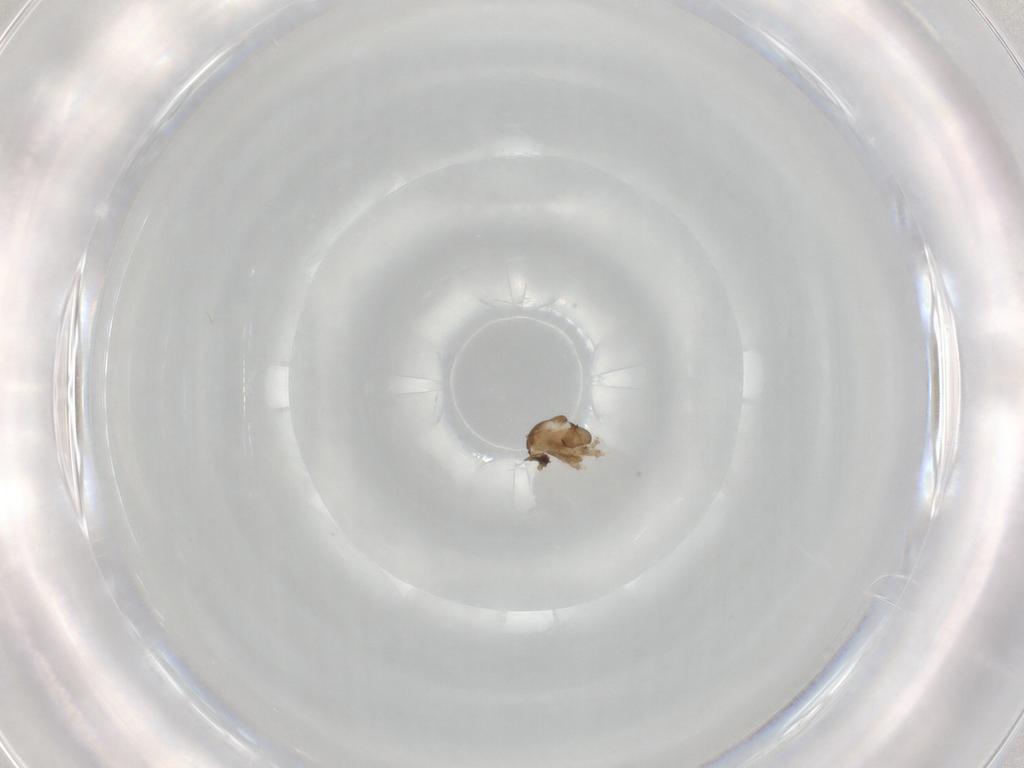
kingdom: Animalia
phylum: Arthropoda
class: Insecta
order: Diptera
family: Cecidomyiidae
